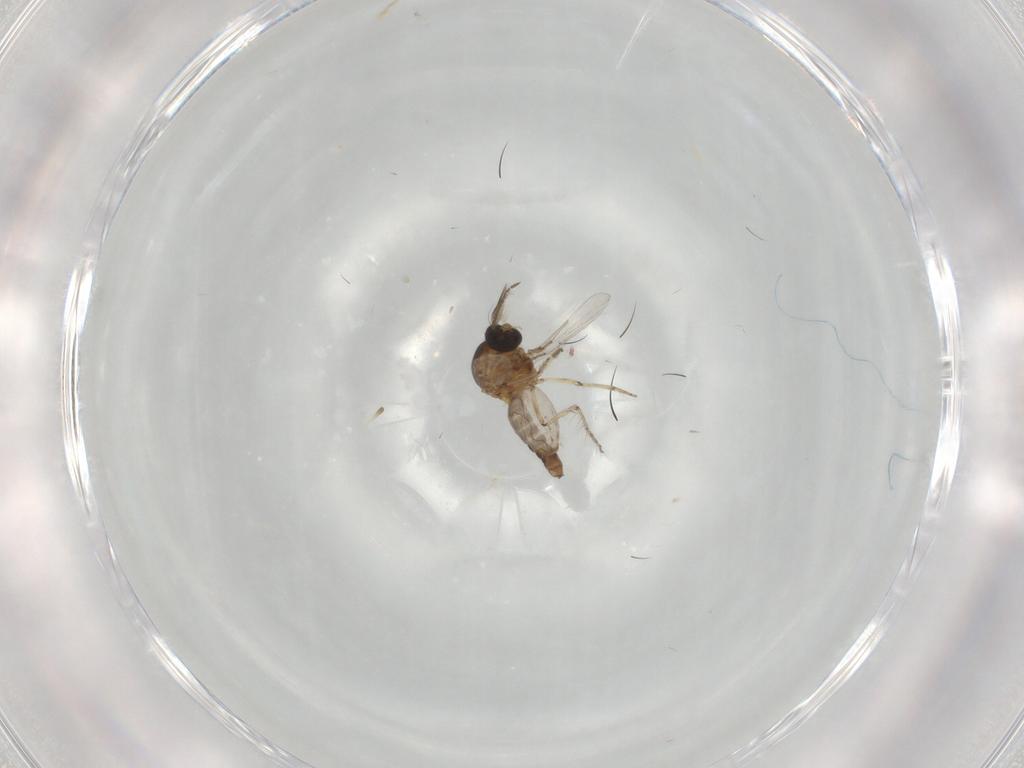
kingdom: Animalia
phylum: Arthropoda
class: Insecta
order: Diptera
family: Ceratopogonidae
